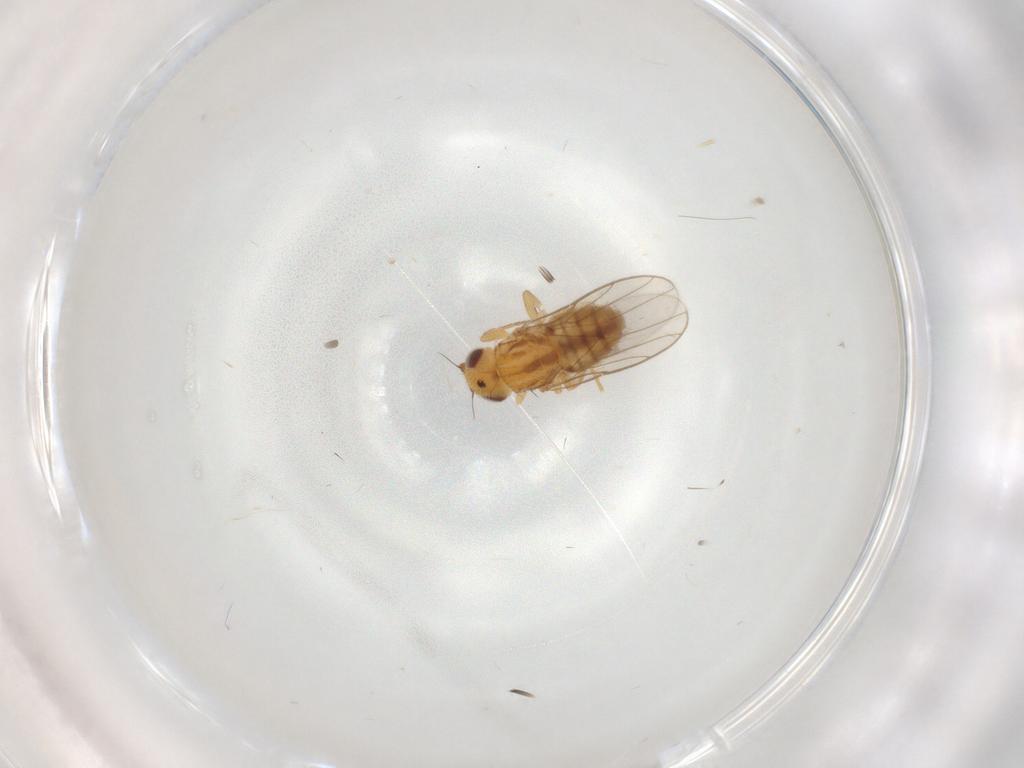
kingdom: Animalia
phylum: Arthropoda
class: Insecta
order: Diptera
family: Chloropidae
